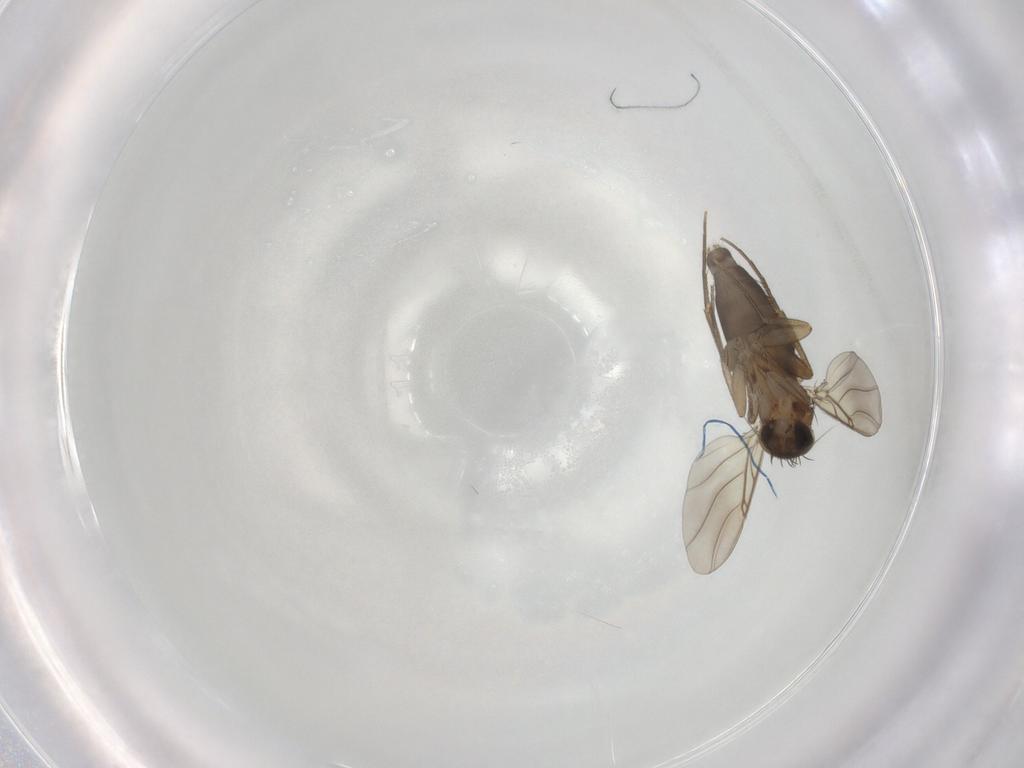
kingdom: Animalia
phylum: Arthropoda
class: Insecta
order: Diptera
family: Phoridae
